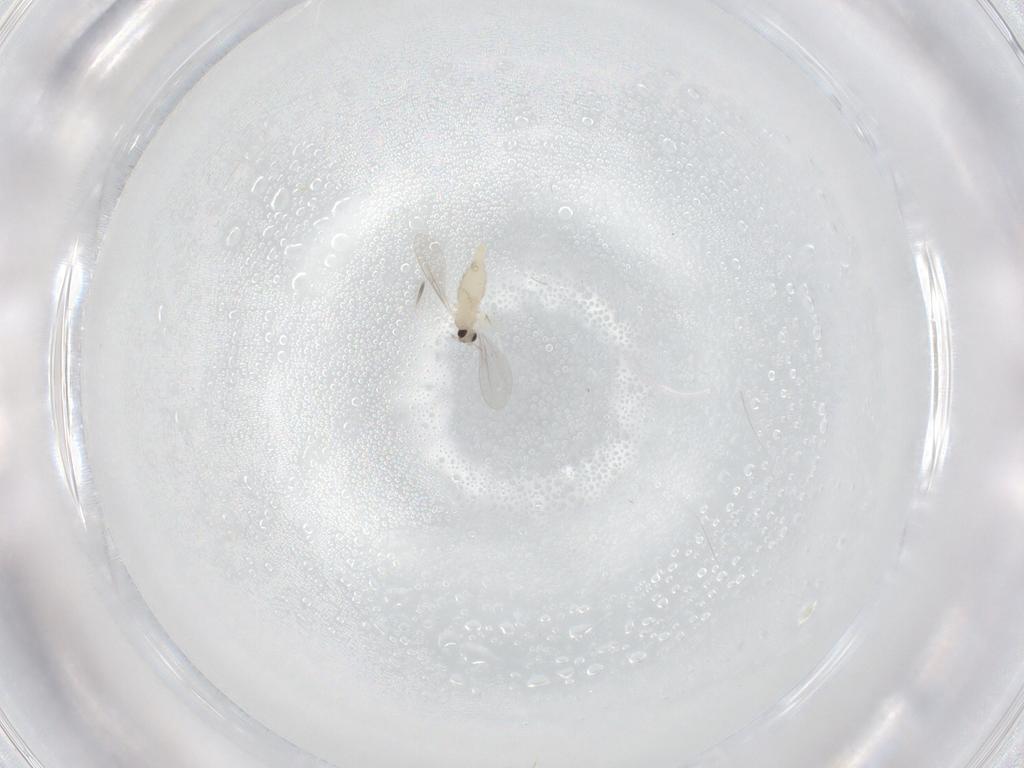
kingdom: Animalia
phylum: Arthropoda
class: Insecta
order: Diptera
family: Cecidomyiidae
